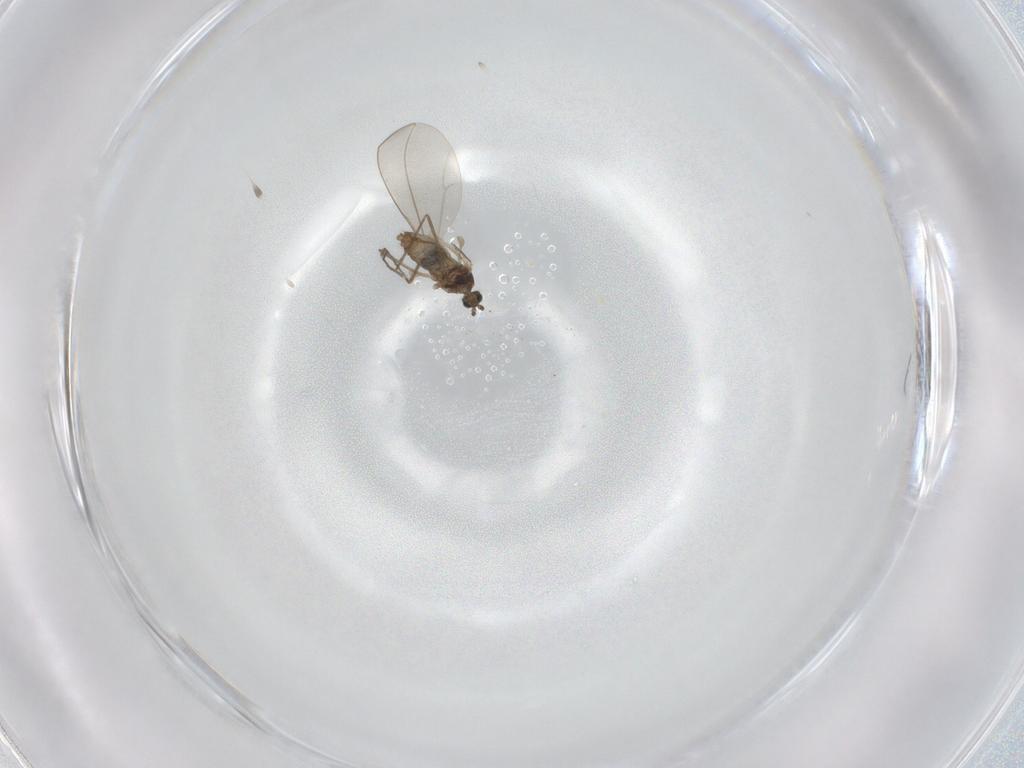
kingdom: Animalia
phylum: Arthropoda
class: Insecta
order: Diptera
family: Cecidomyiidae
